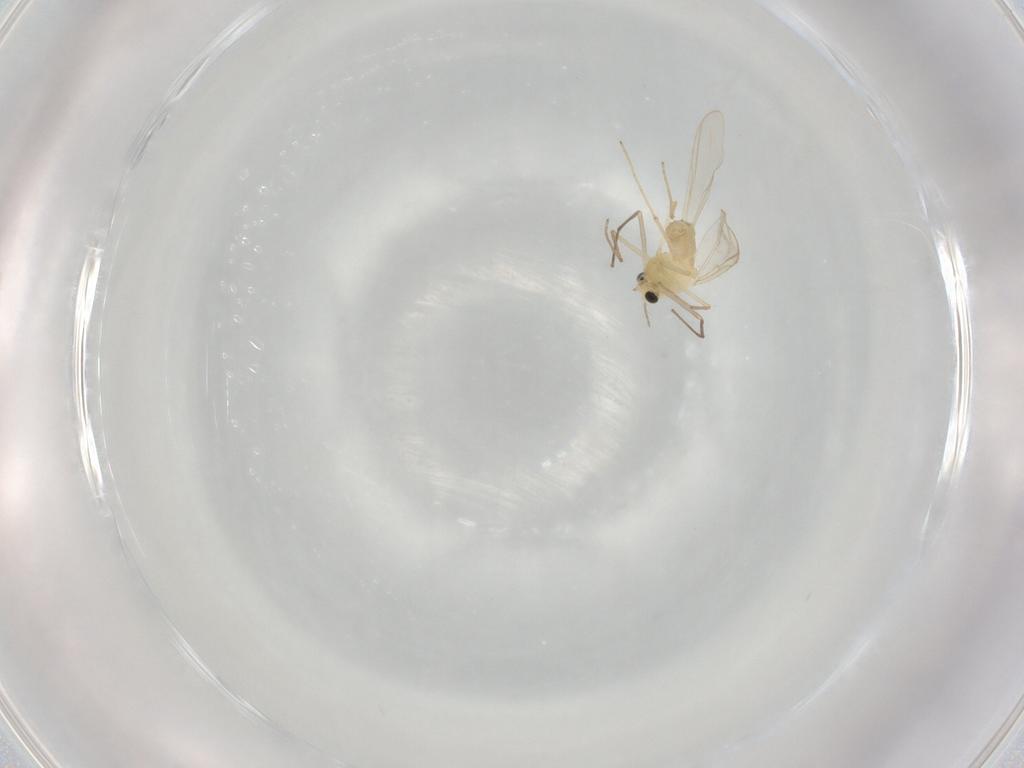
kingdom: Animalia
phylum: Arthropoda
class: Insecta
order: Diptera
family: Chironomidae
